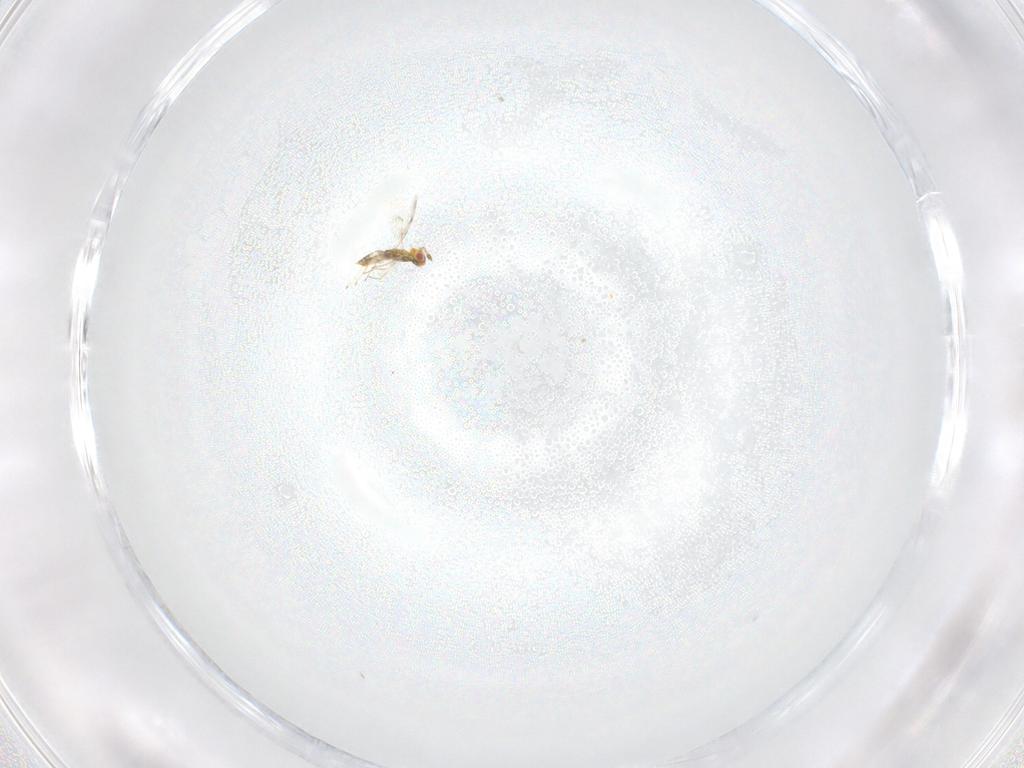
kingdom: Animalia
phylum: Arthropoda
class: Insecta
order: Hymenoptera
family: Eulophidae
